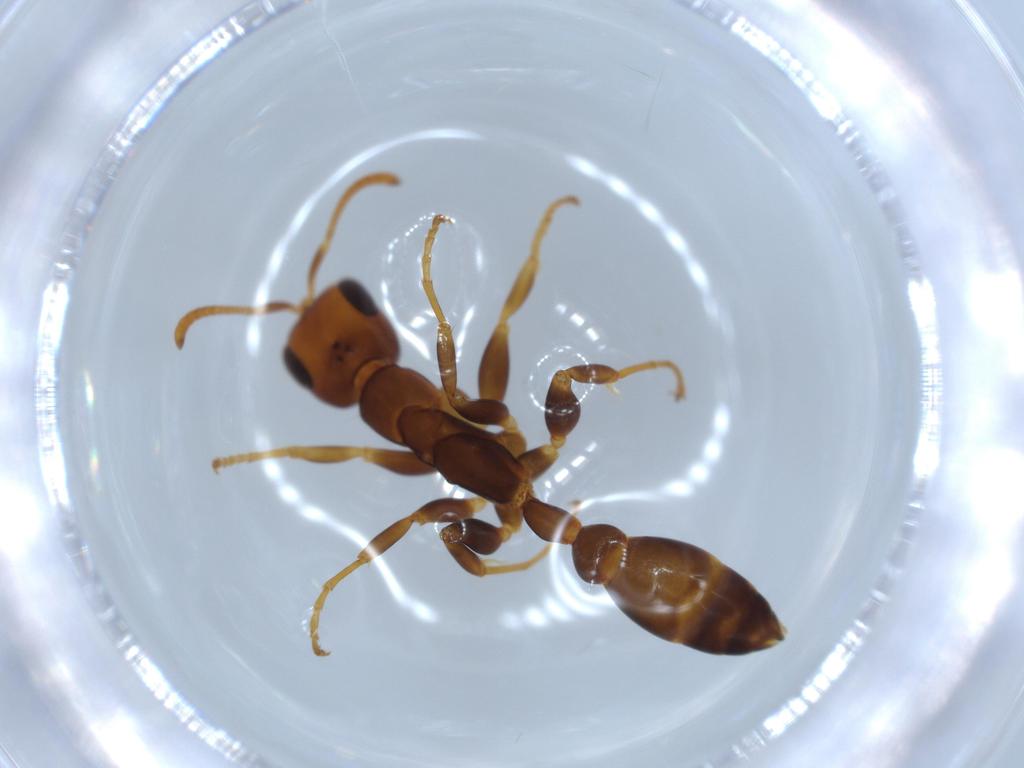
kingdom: Animalia
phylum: Arthropoda
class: Insecta
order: Hymenoptera
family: Formicidae
